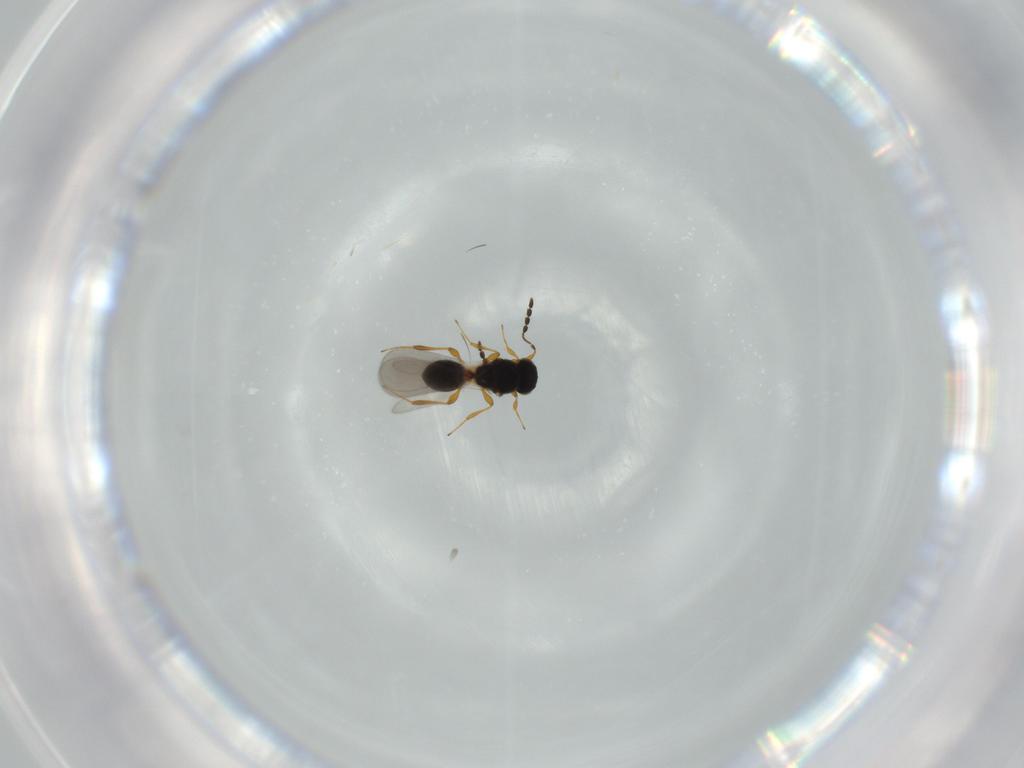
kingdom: Animalia
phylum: Arthropoda
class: Insecta
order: Hymenoptera
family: Platygastridae
